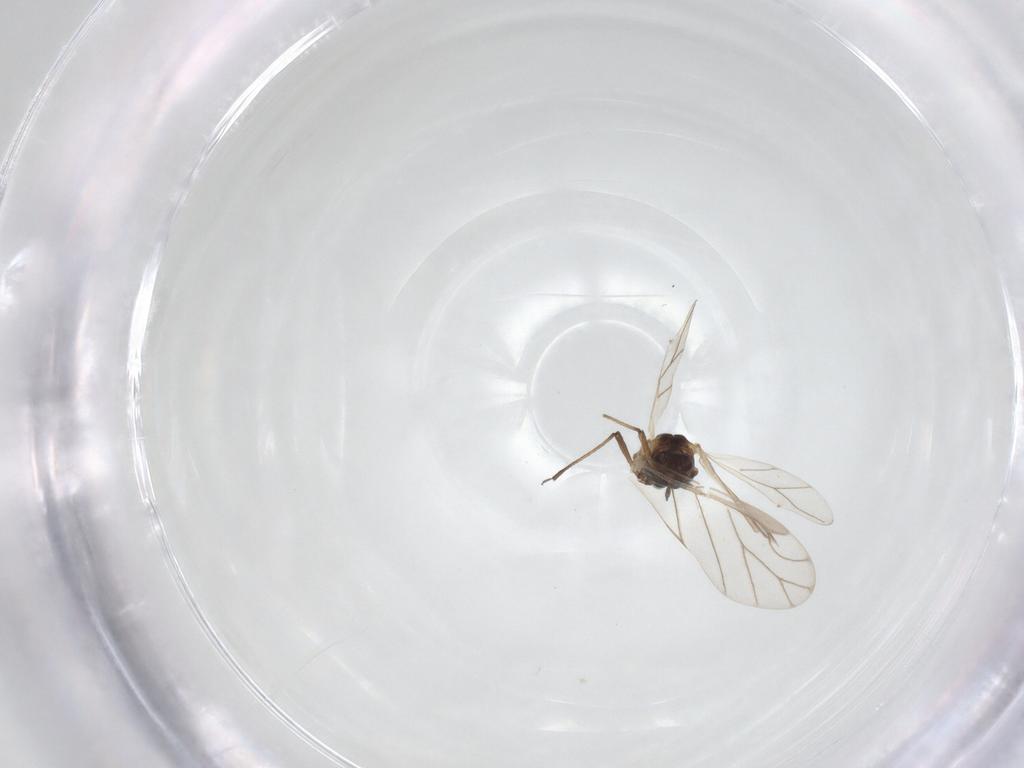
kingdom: Animalia
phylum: Arthropoda
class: Insecta
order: Hemiptera
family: Aphididae
